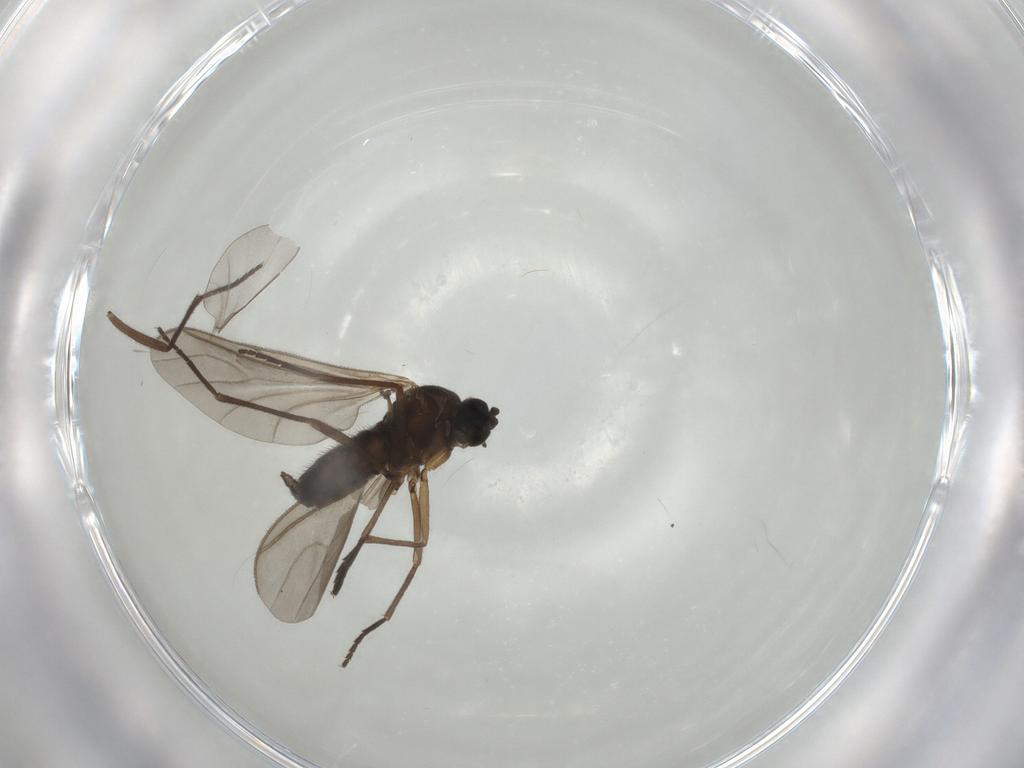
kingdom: Animalia
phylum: Arthropoda
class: Insecta
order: Diptera
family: Sciaridae
